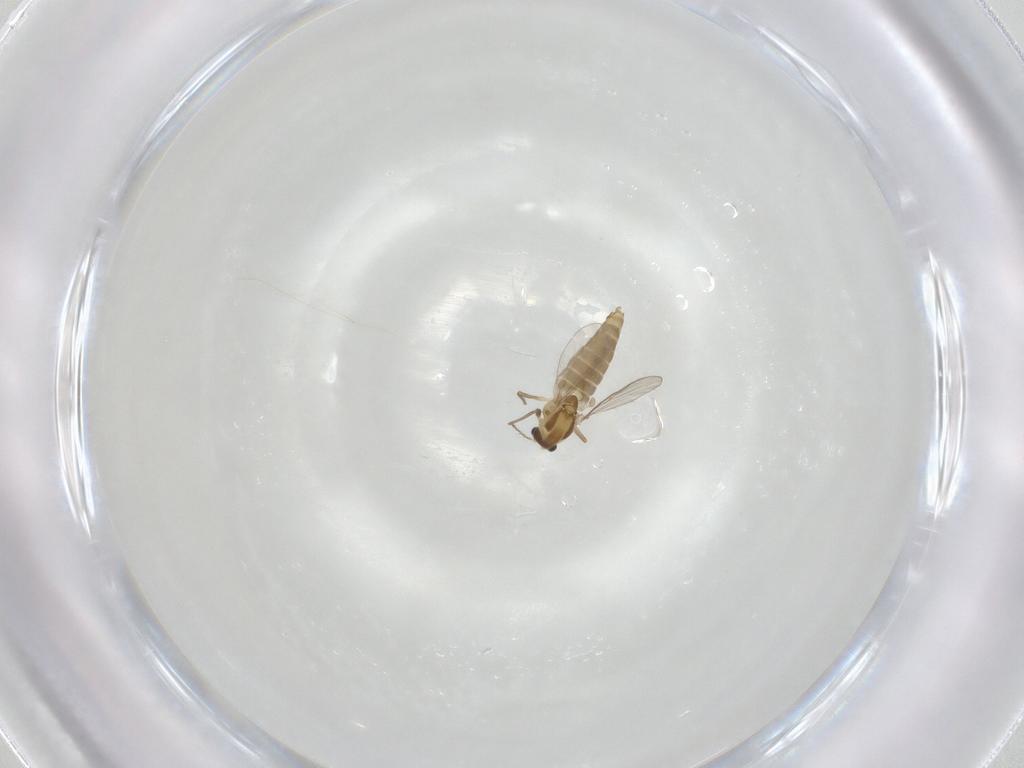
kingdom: Animalia
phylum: Arthropoda
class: Insecta
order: Diptera
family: Chironomidae
